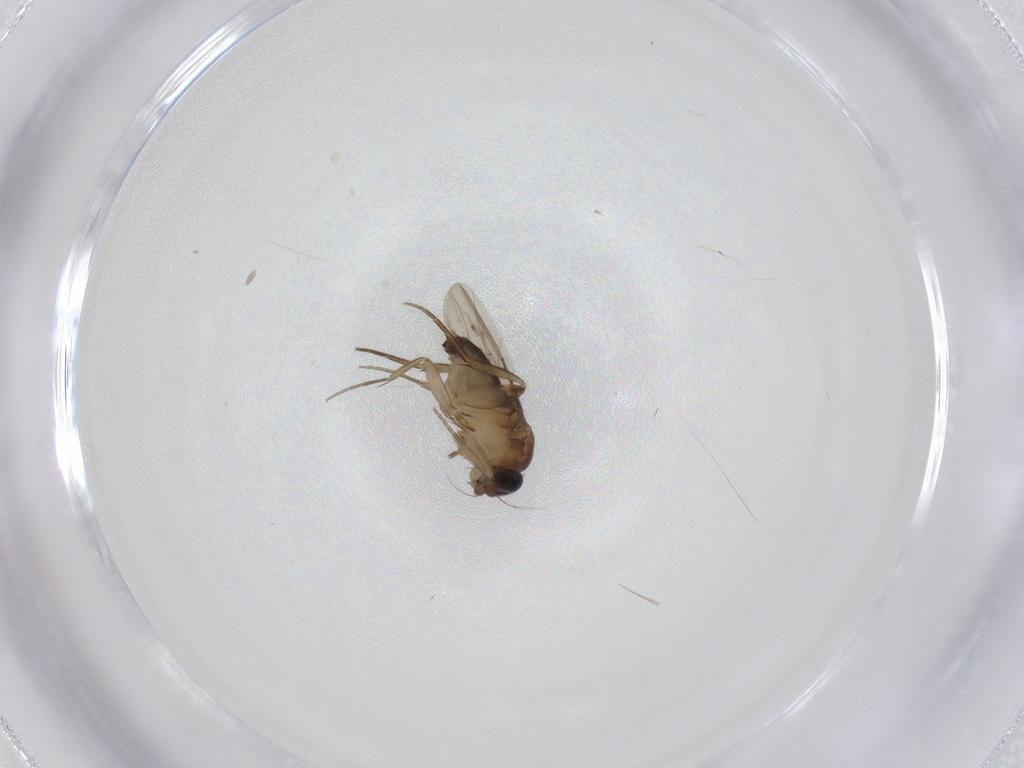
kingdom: Animalia
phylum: Arthropoda
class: Insecta
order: Diptera
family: Phoridae
